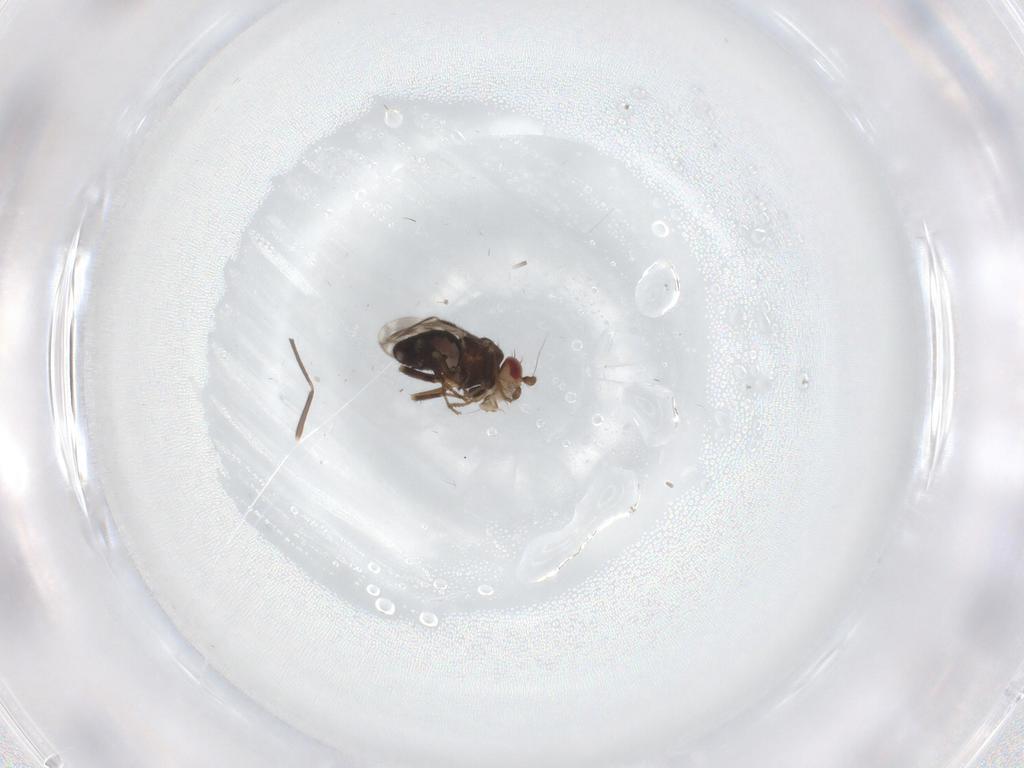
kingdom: Animalia
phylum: Arthropoda
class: Insecta
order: Diptera
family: Sphaeroceridae
